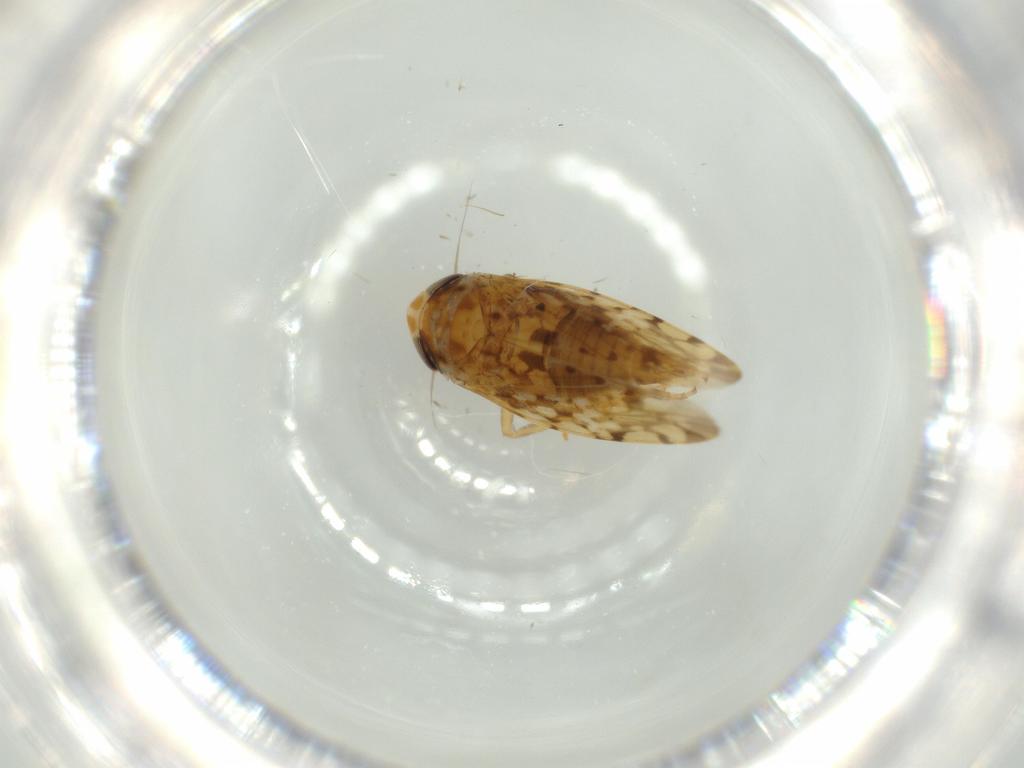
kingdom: Animalia
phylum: Arthropoda
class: Insecta
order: Hemiptera
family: Cicadellidae
